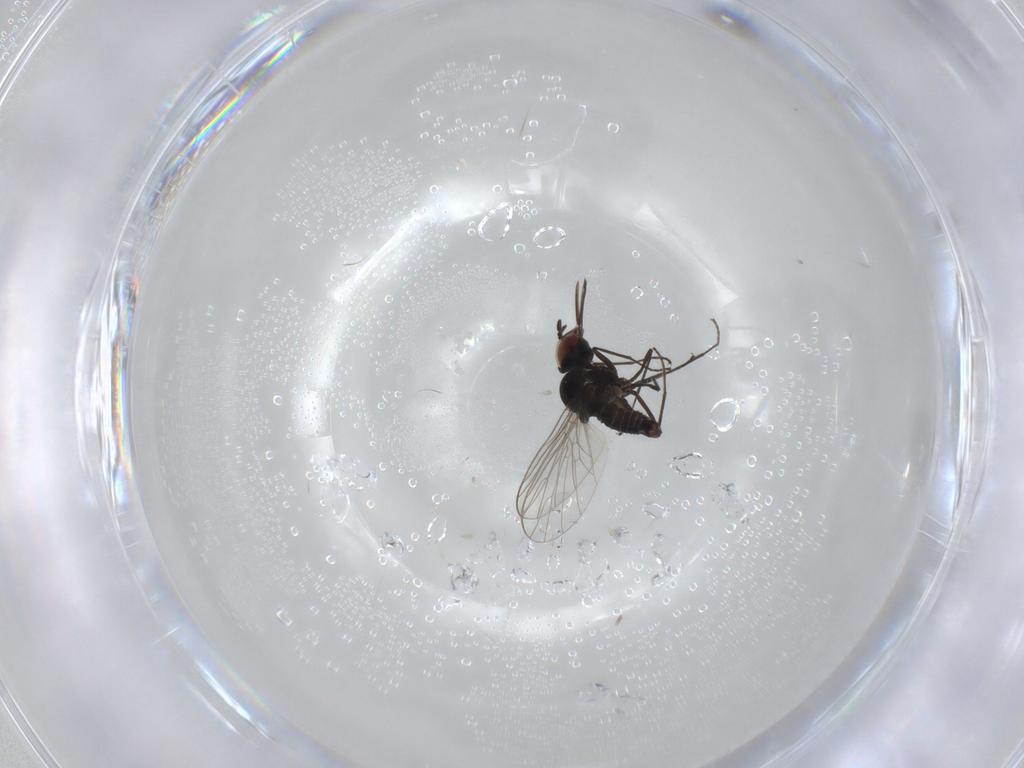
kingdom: Animalia
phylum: Arthropoda
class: Insecta
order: Diptera
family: Bombyliidae
